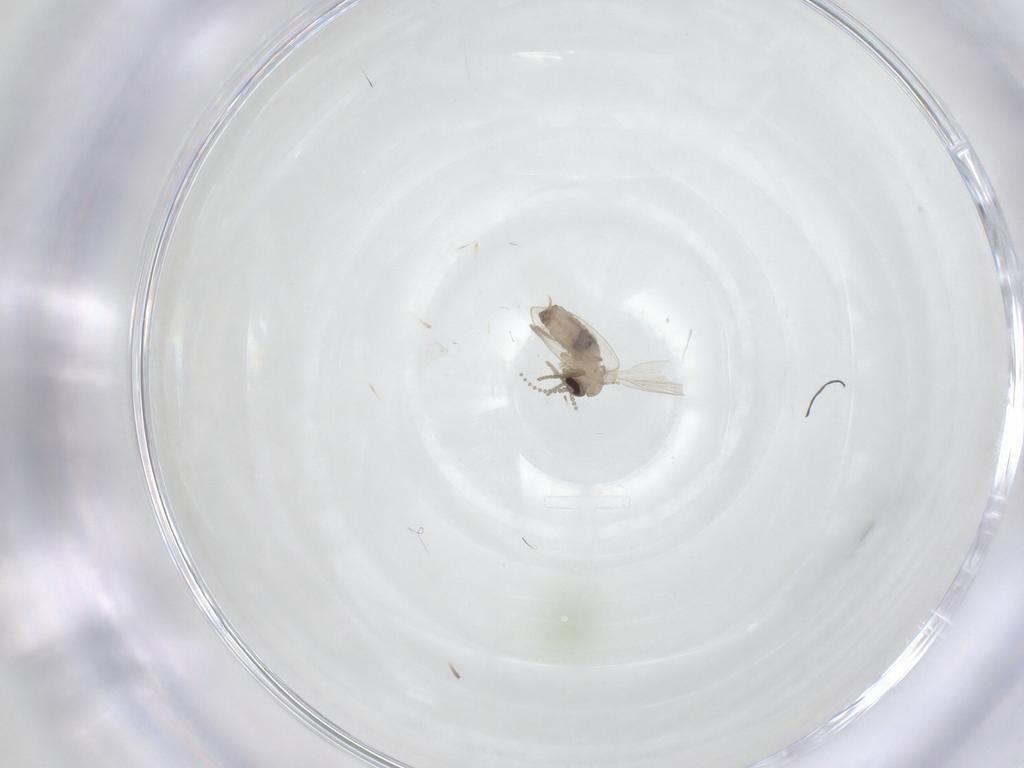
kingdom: Animalia
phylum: Arthropoda
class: Insecta
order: Diptera
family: Psychodidae
